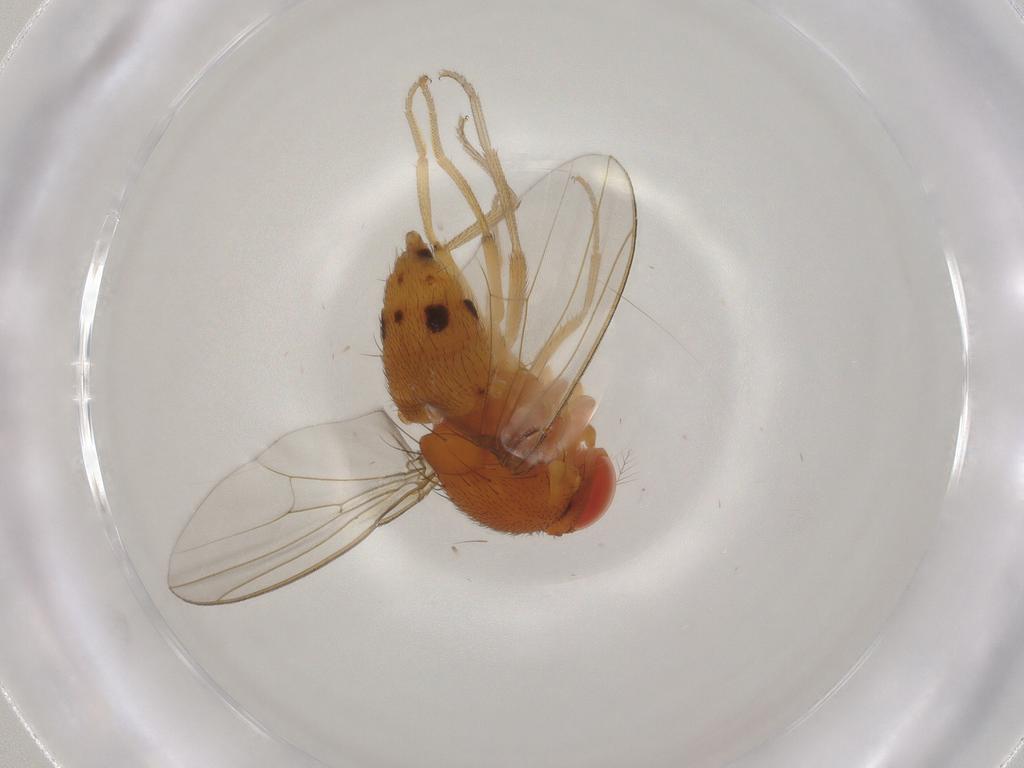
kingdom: Animalia
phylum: Arthropoda
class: Insecta
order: Diptera
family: Drosophilidae
